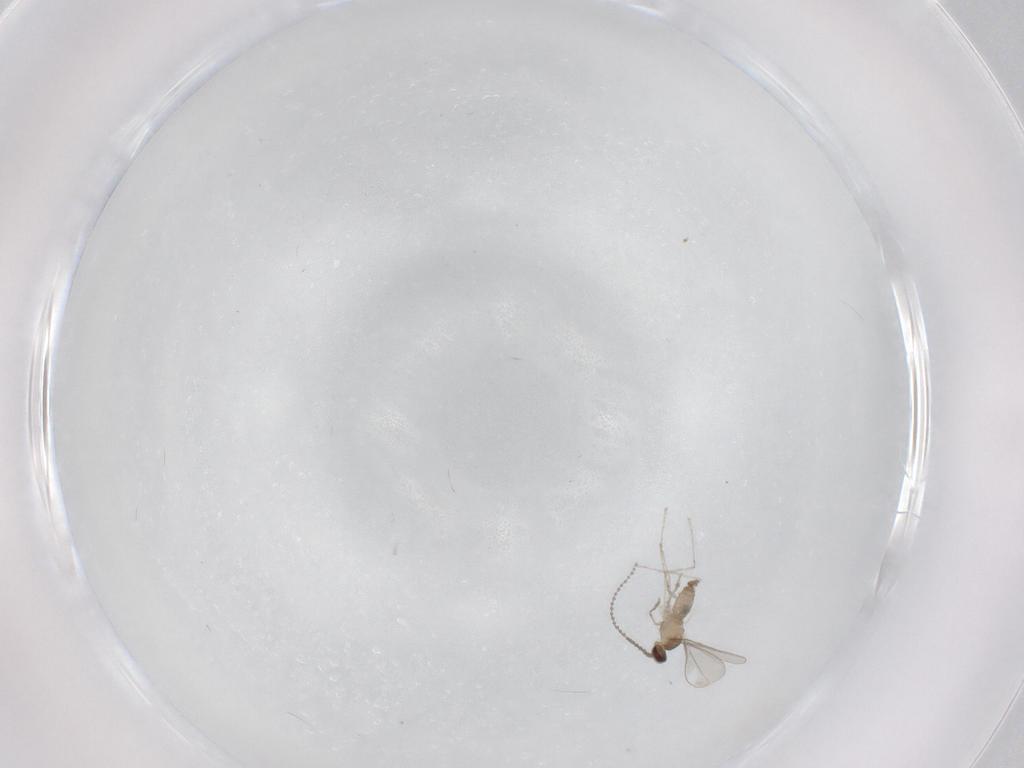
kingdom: Animalia
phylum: Arthropoda
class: Insecta
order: Diptera
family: Cecidomyiidae
